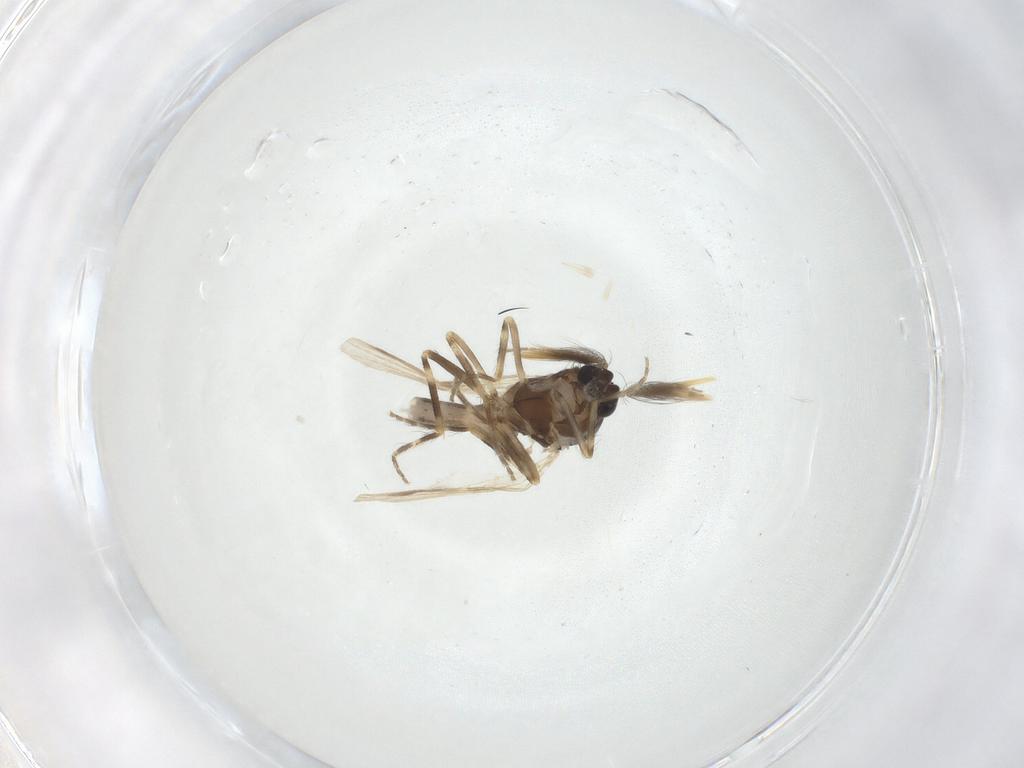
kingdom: Animalia
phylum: Arthropoda
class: Insecta
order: Diptera
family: Ceratopogonidae
